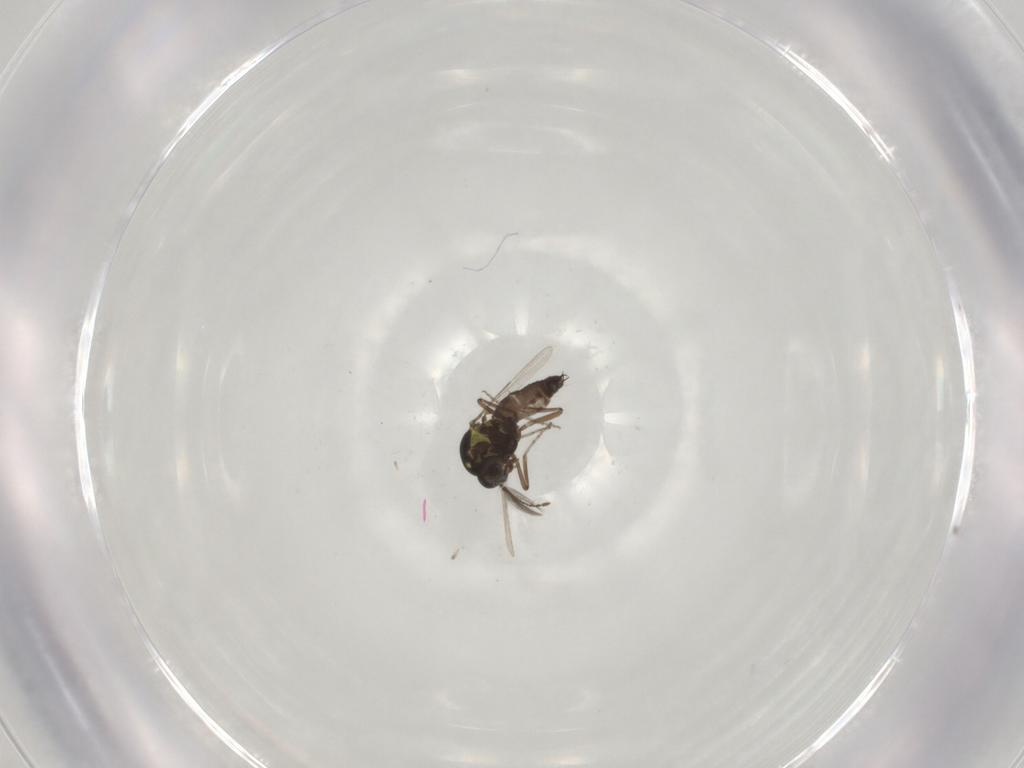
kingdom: Animalia
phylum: Arthropoda
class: Insecta
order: Diptera
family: Ceratopogonidae
